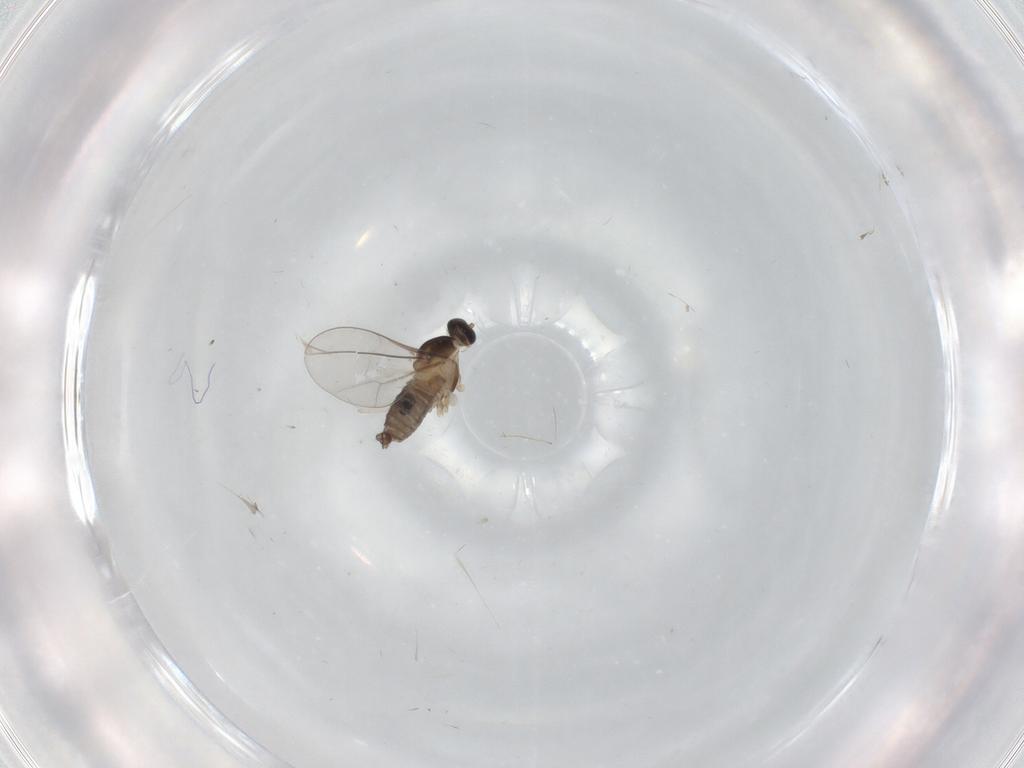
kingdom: Animalia
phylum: Arthropoda
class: Insecta
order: Diptera
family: Cecidomyiidae
